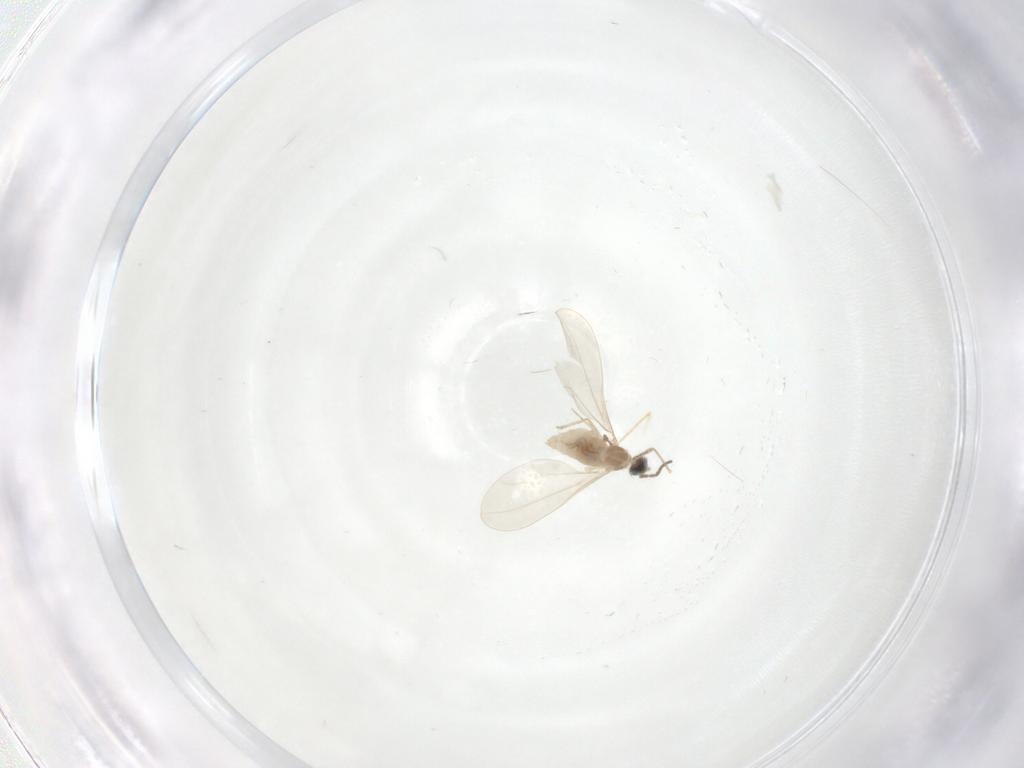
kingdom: Animalia
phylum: Arthropoda
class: Insecta
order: Diptera
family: Cecidomyiidae
